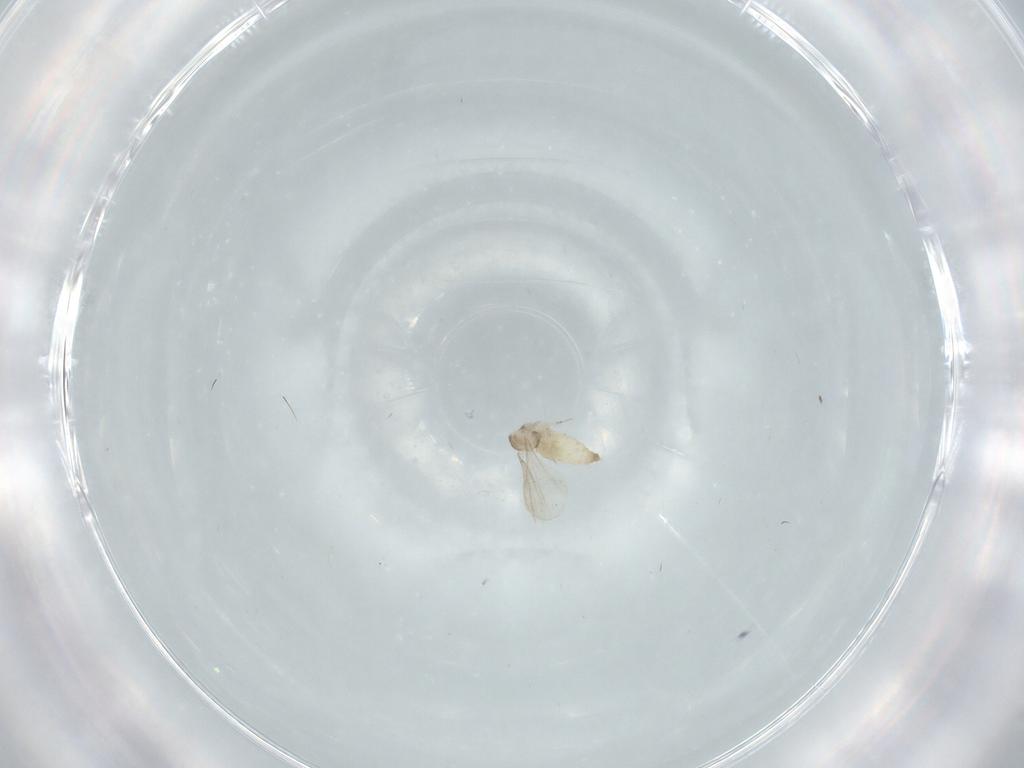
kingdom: Animalia
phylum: Arthropoda
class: Insecta
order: Diptera
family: Cecidomyiidae
